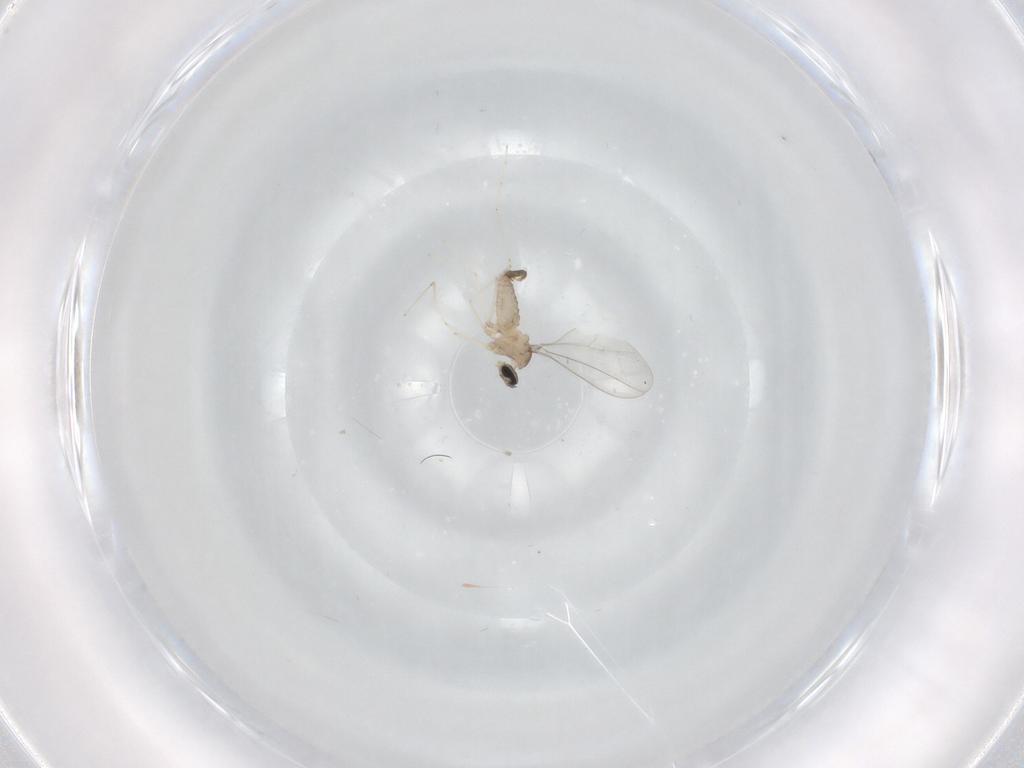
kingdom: Animalia
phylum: Arthropoda
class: Insecta
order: Diptera
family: Cecidomyiidae
